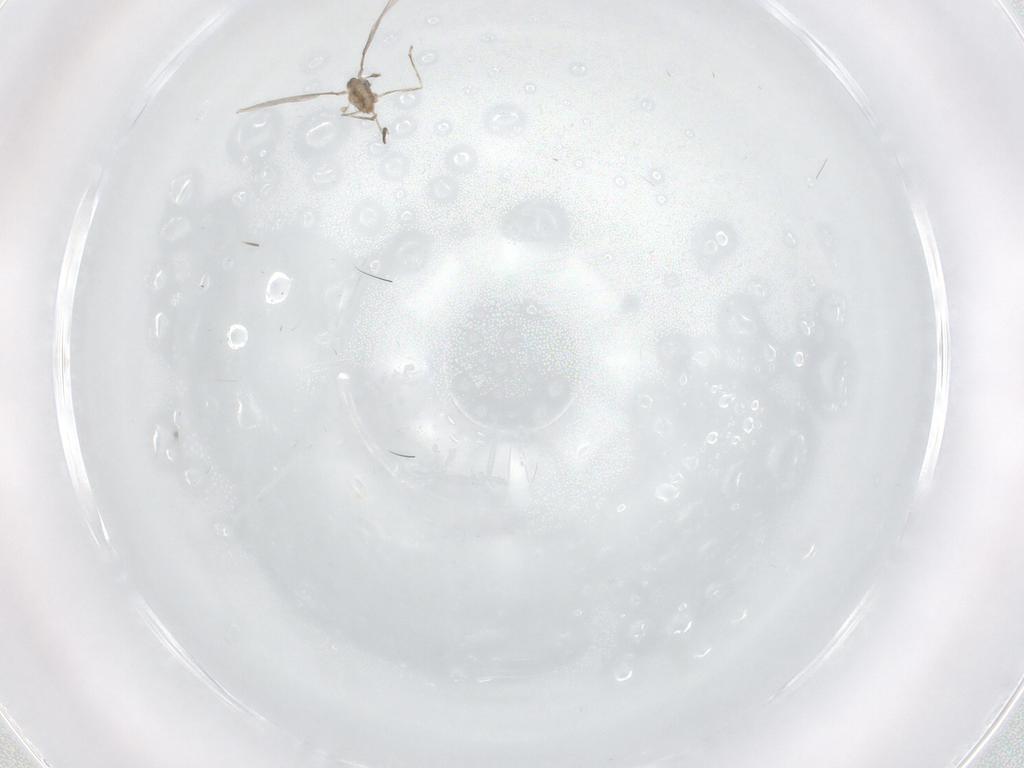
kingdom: Animalia
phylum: Arthropoda
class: Insecta
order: Diptera
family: Cecidomyiidae
